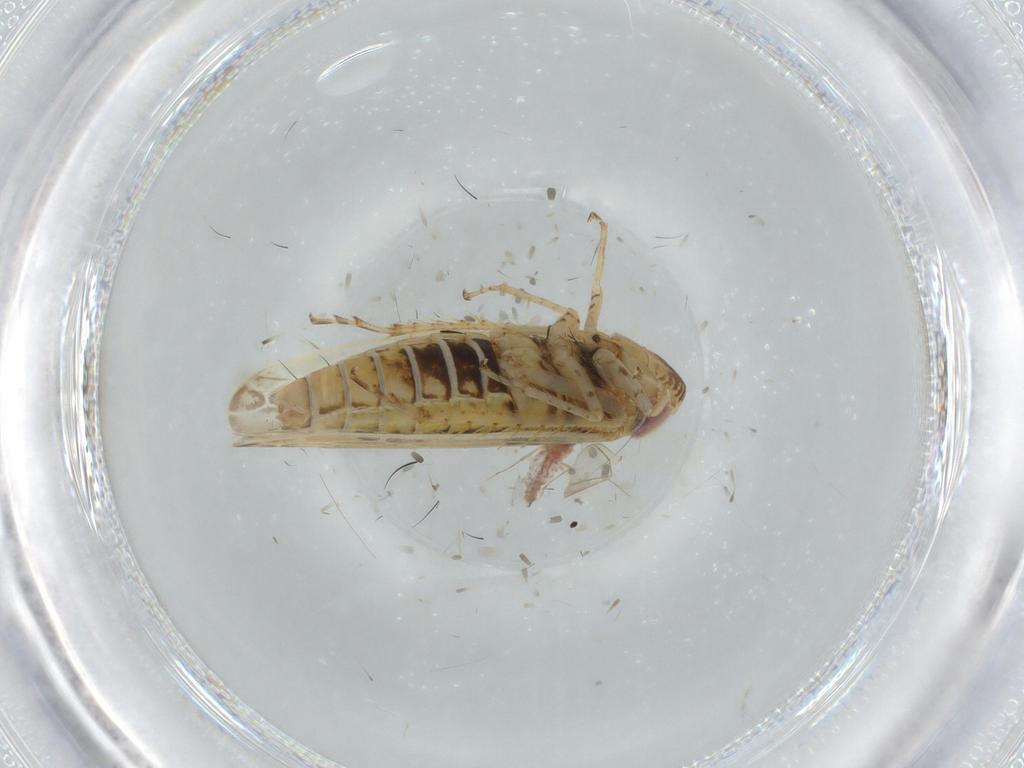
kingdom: Animalia
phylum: Arthropoda
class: Insecta
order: Hemiptera
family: Cicadellidae
